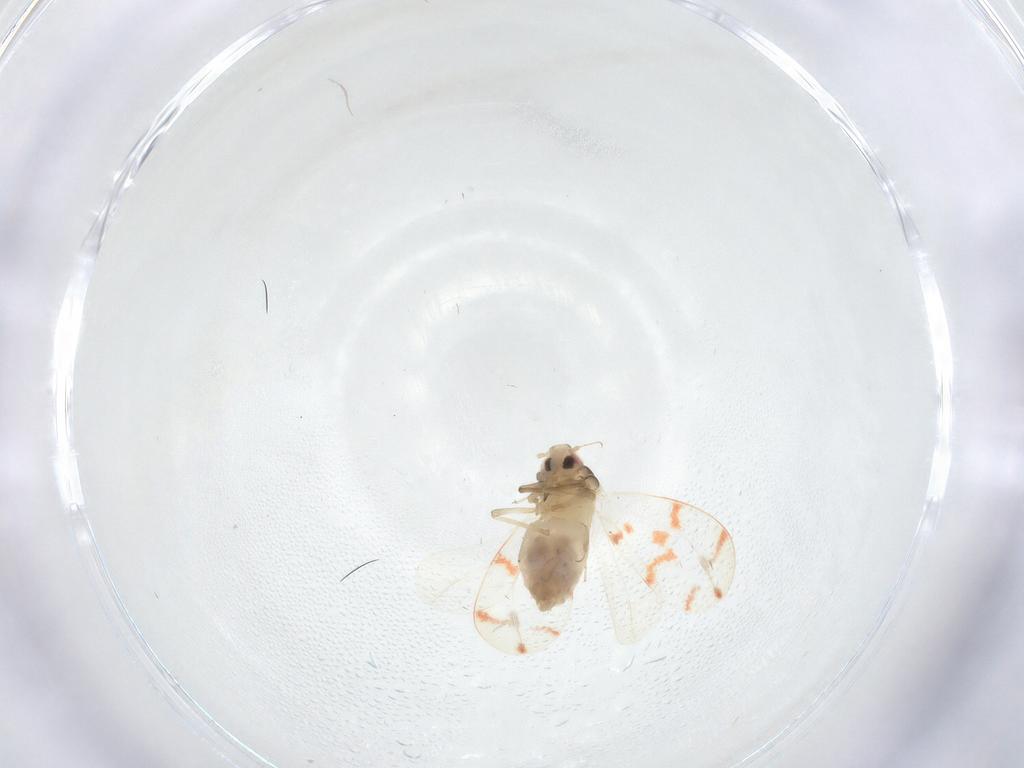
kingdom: Animalia
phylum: Arthropoda
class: Insecta
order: Hemiptera
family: Aleyrodidae
